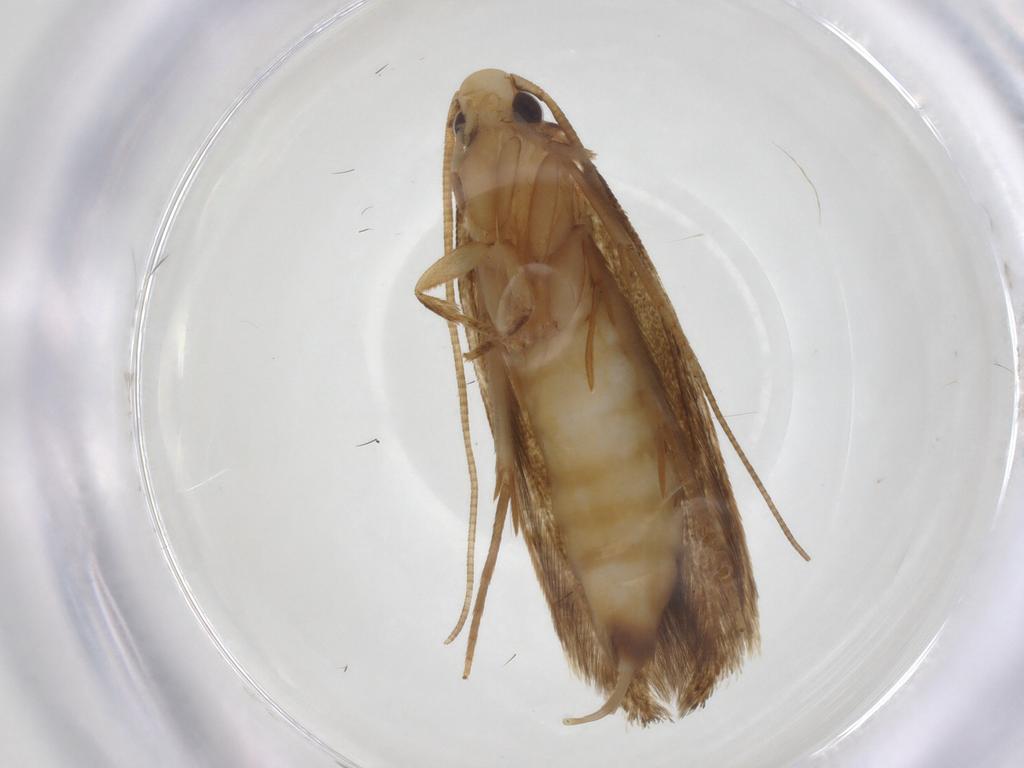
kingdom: Animalia
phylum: Arthropoda
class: Insecta
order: Lepidoptera
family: Tineidae
